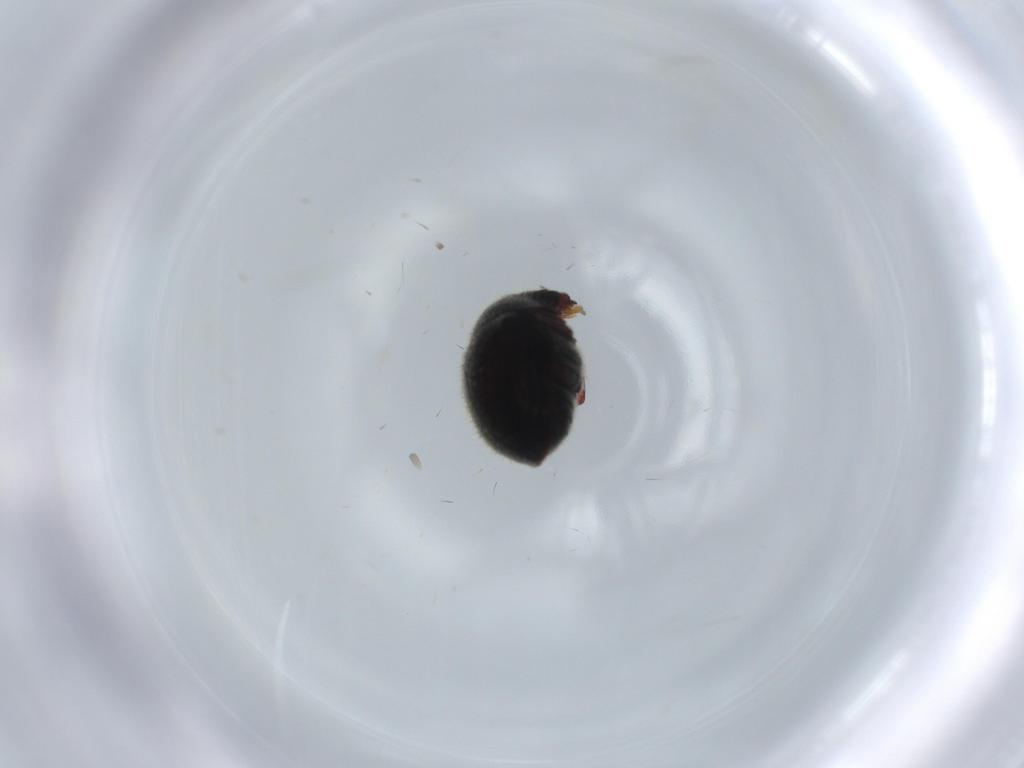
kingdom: Animalia
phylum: Arthropoda
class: Insecta
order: Coleoptera
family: Ptinidae
